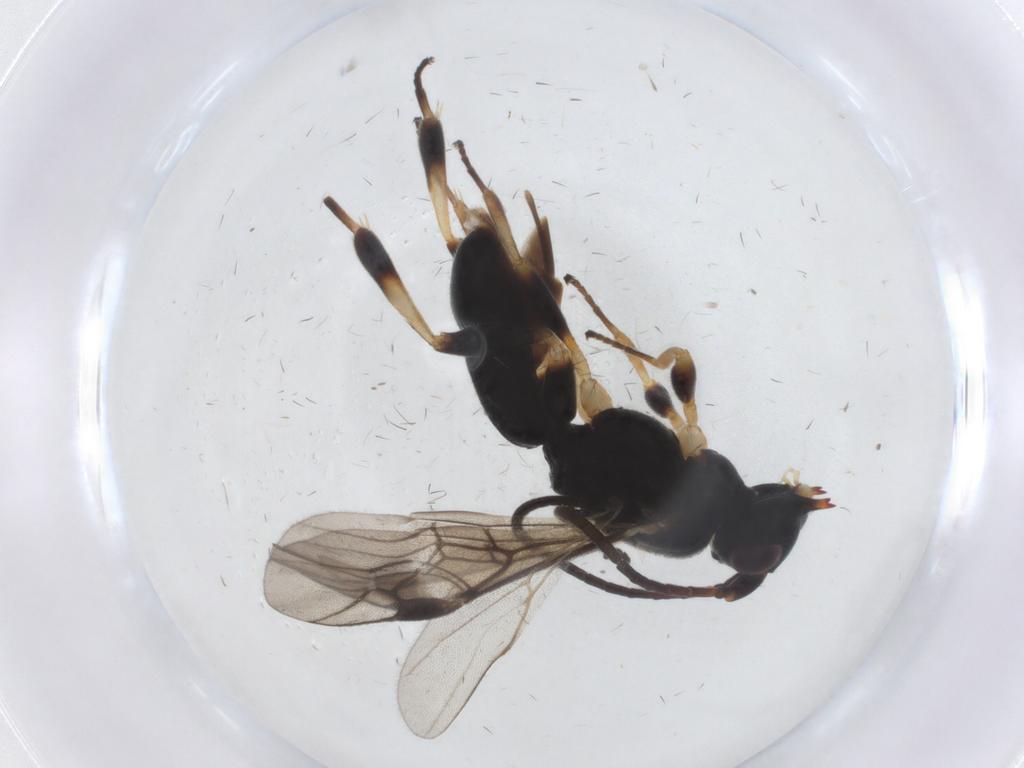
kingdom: Animalia
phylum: Arthropoda
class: Insecta
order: Hymenoptera
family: Braconidae
